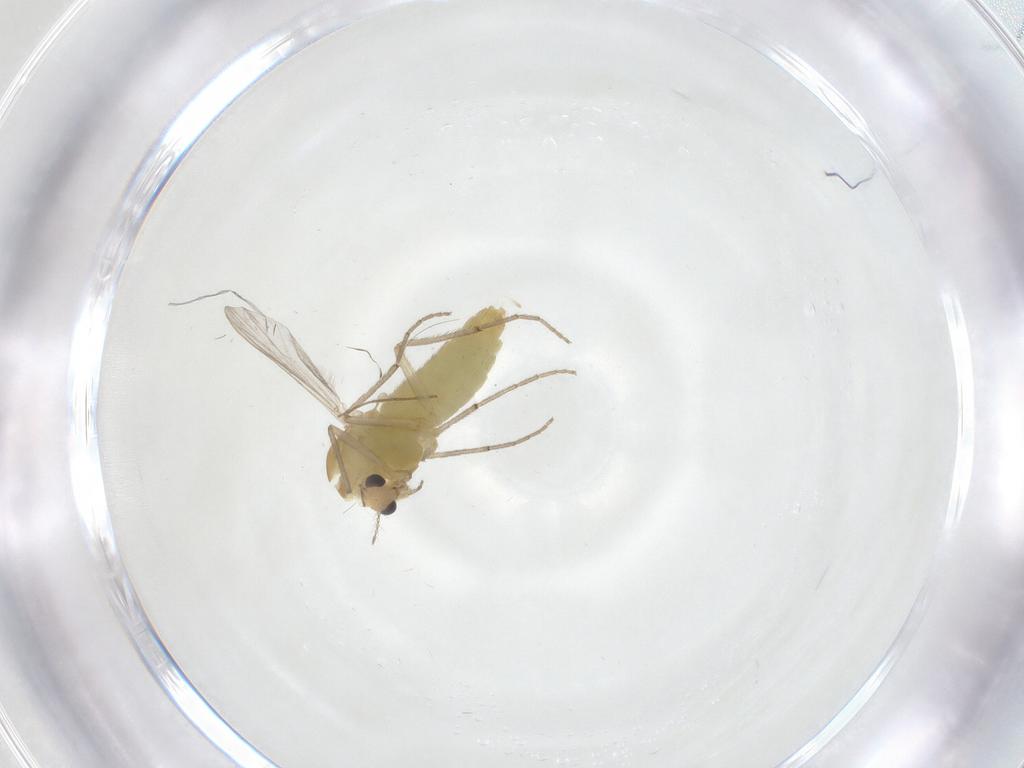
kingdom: Animalia
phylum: Arthropoda
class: Insecta
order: Diptera
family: Chironomidae
